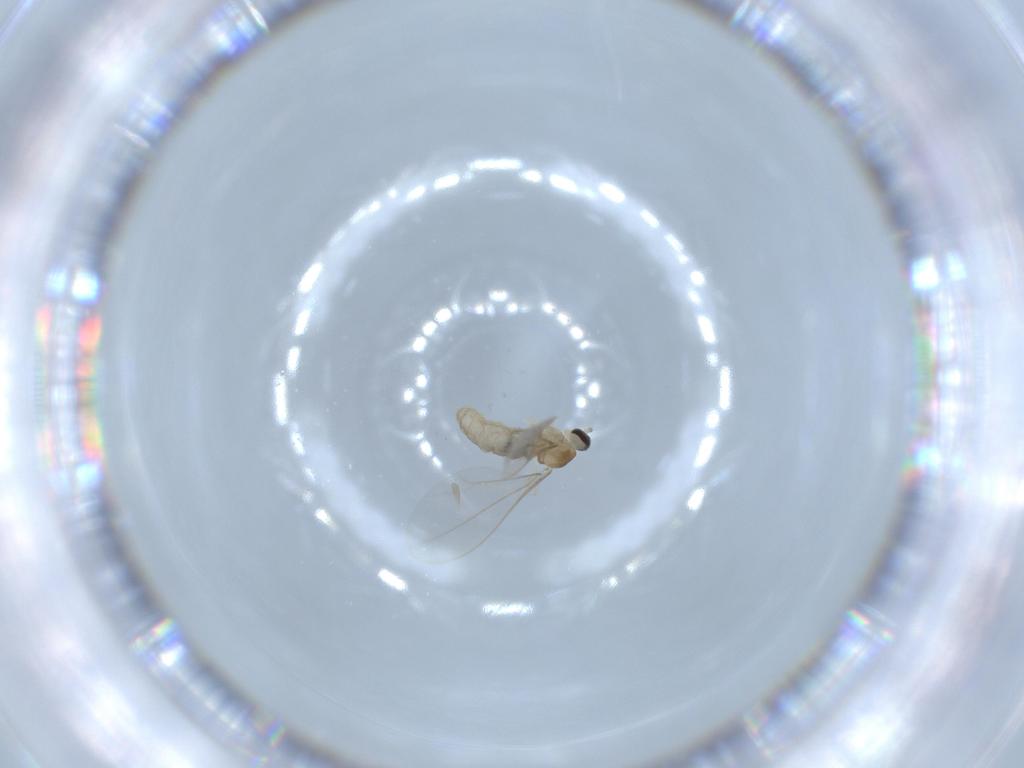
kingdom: Animalia
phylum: Arthropoda
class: Insecta
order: Diptera
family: Cecidomyiidae
